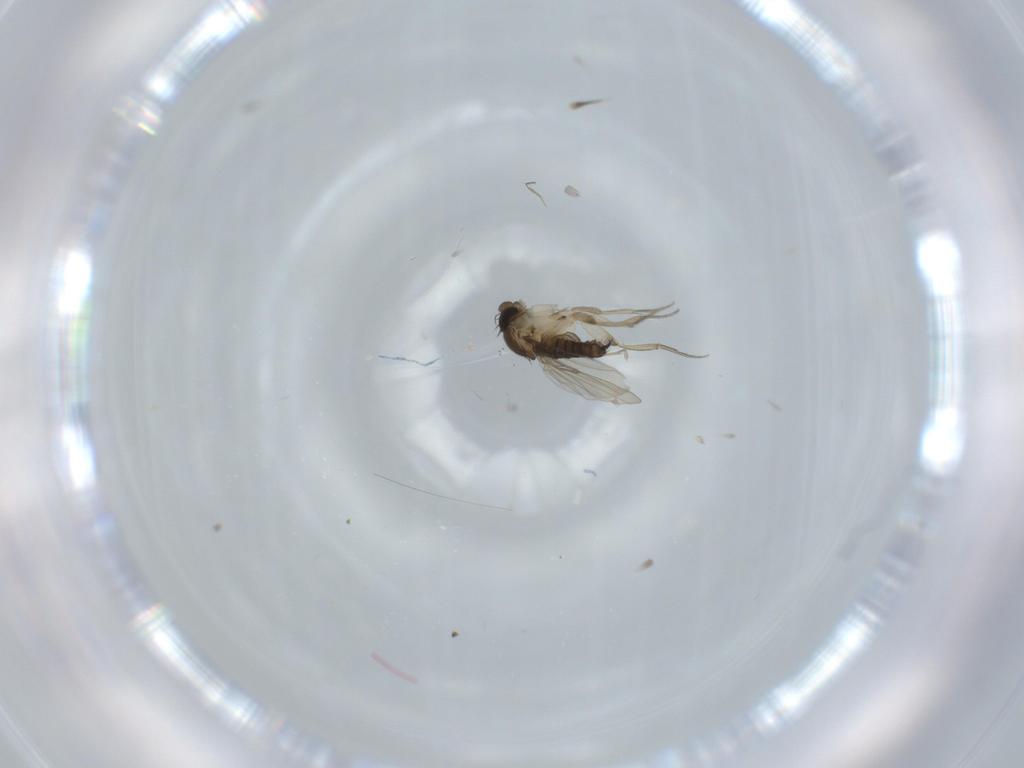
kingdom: Animalia
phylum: Arthropoda
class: Insecta
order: Diptera
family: Phoridae
